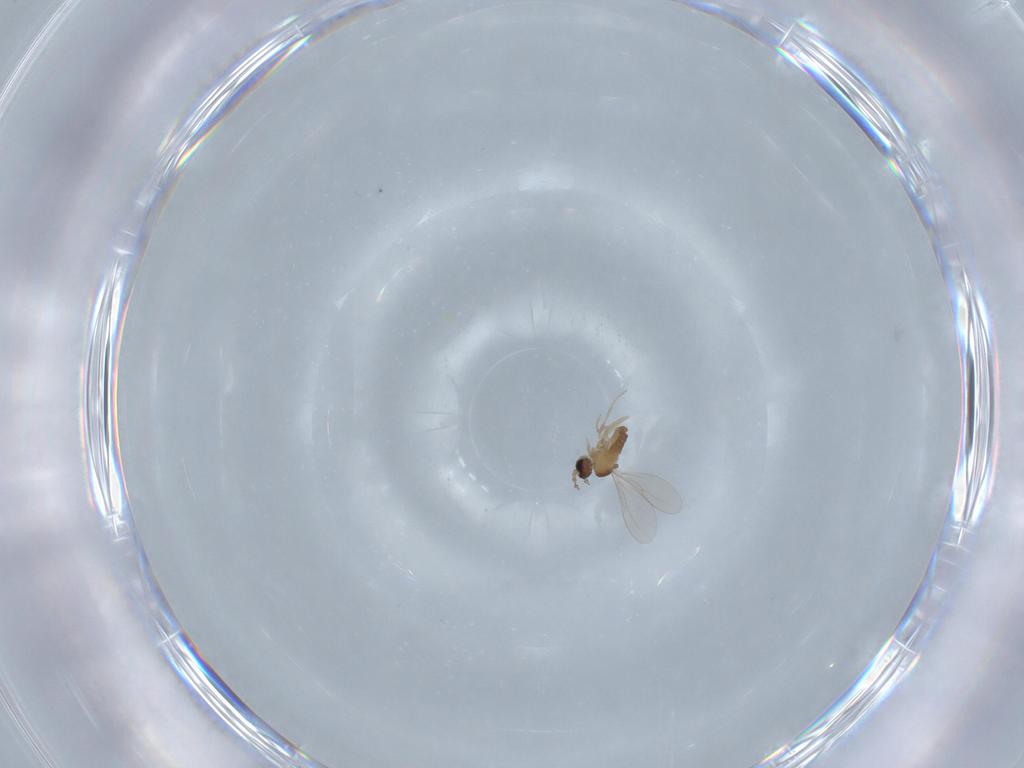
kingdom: Animalia
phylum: Arthropoda
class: Insecta
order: Diptera
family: Cecidomyiidae
